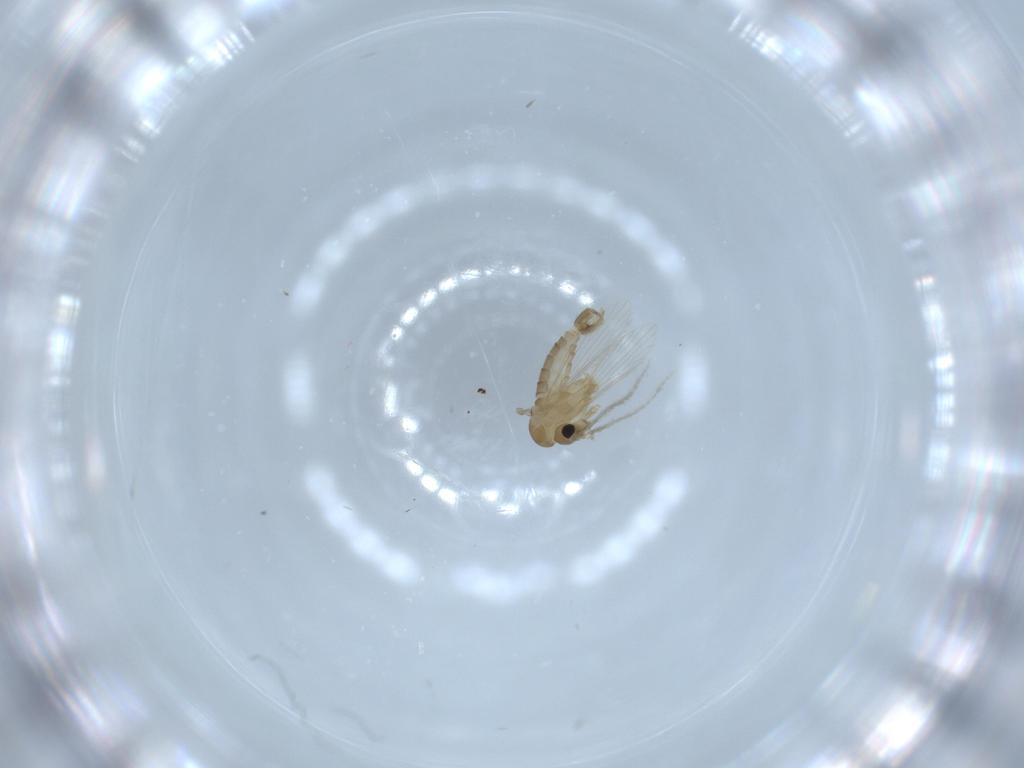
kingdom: Animalia
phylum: Arthropoda
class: Insecta
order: Diptera
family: Psychodidae
